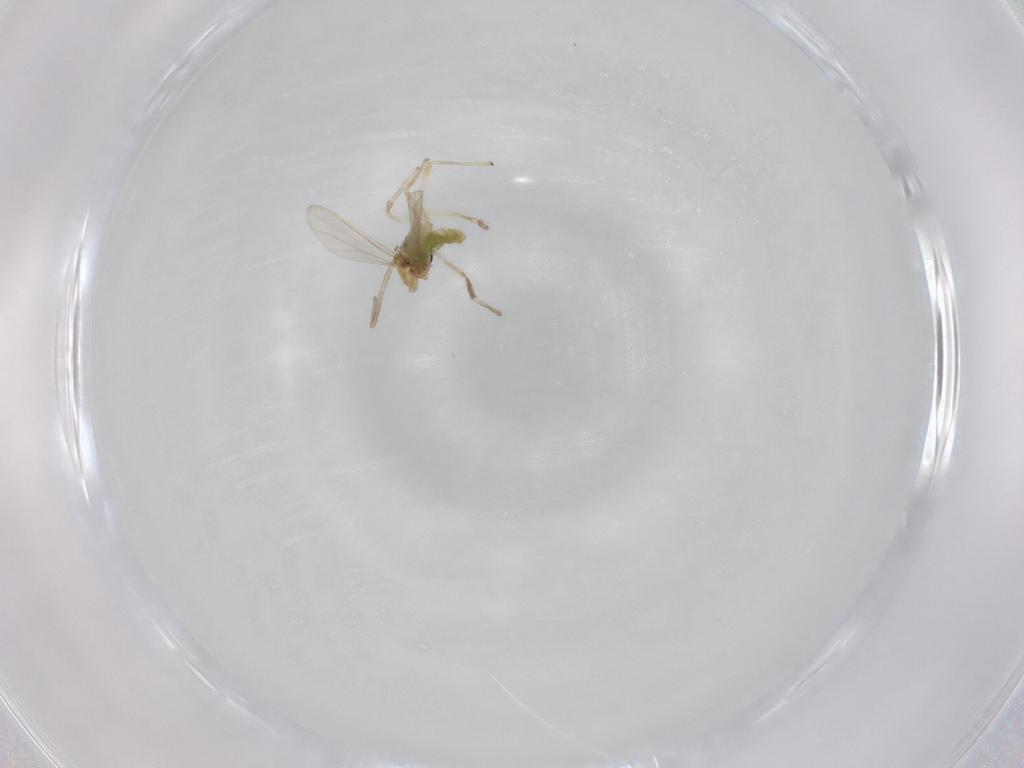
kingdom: Animalia
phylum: Arthropoda
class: Insecta
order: Diptera
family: Chironomidae
